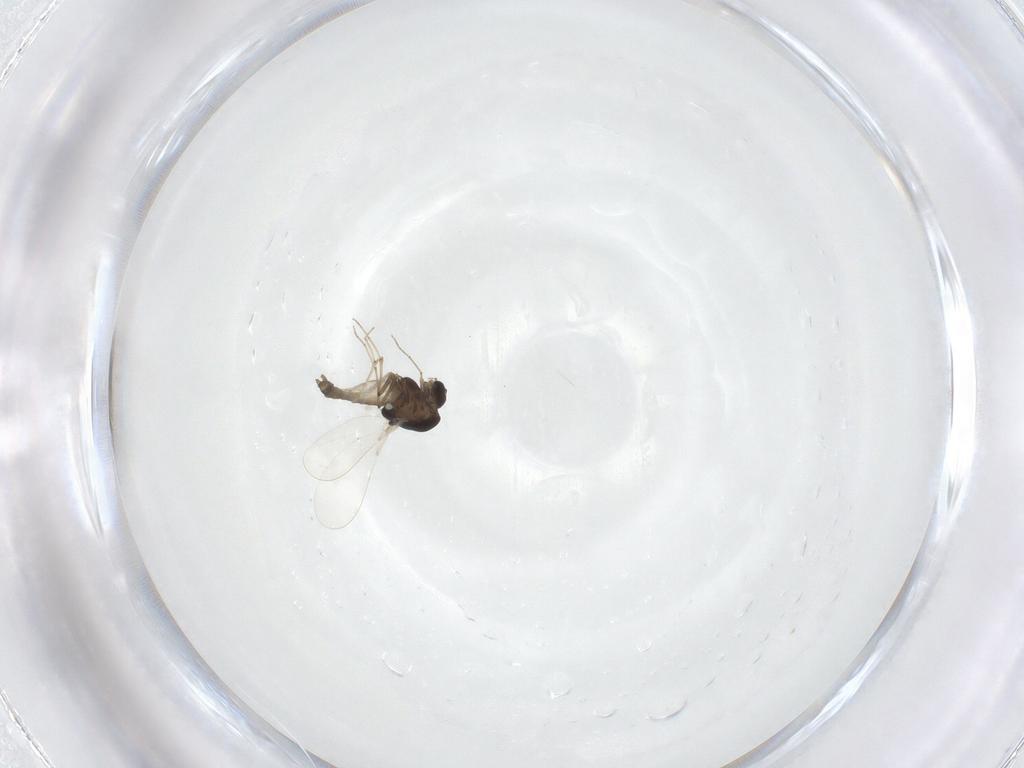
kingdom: Animalia
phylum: Arthropoda
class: Insecta
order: Diptera
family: Chironomidae
